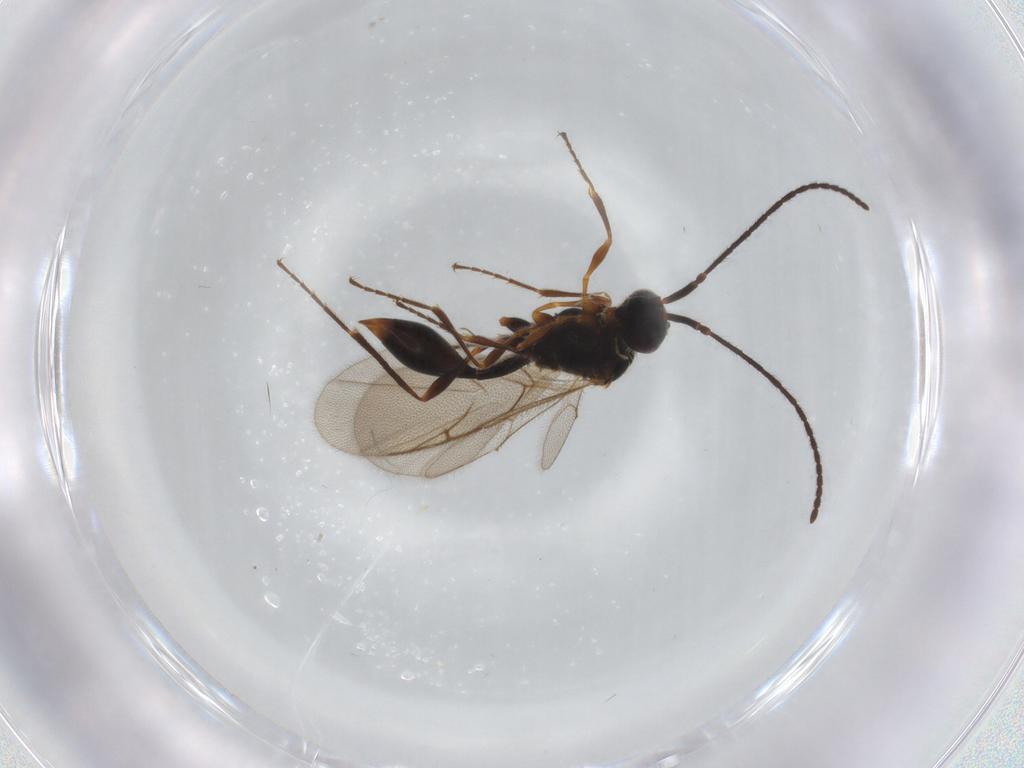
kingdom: Animalia
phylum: Arthropoda
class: Insecta
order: Hymenoptera
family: Diapriidae
